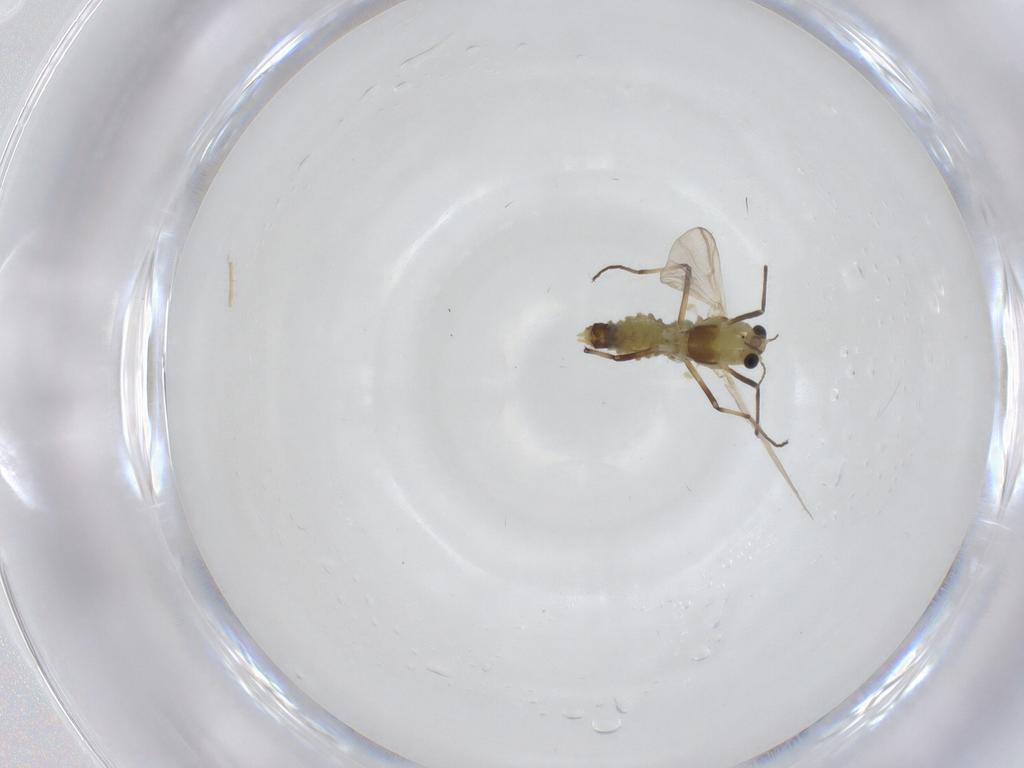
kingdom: Animalia
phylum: Arthropoda
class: Insecta
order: Diptera
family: Chironomidae
